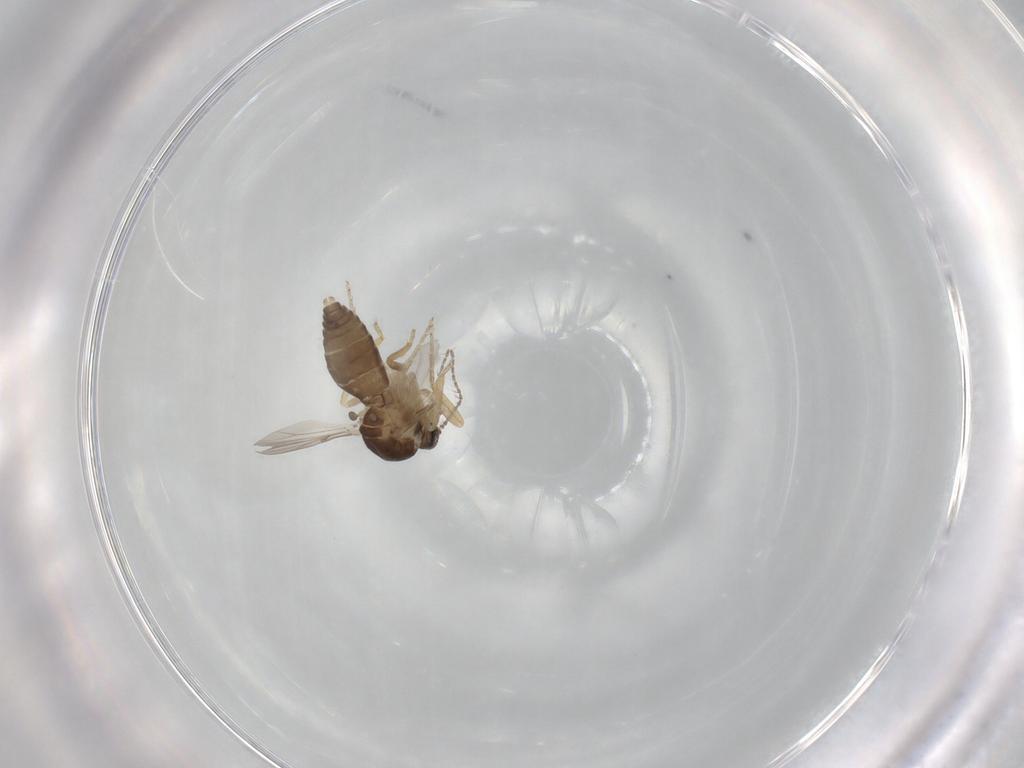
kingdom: Animalia
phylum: Arthropoda
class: Insecta
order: Diptera
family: Ceratopogonidae
